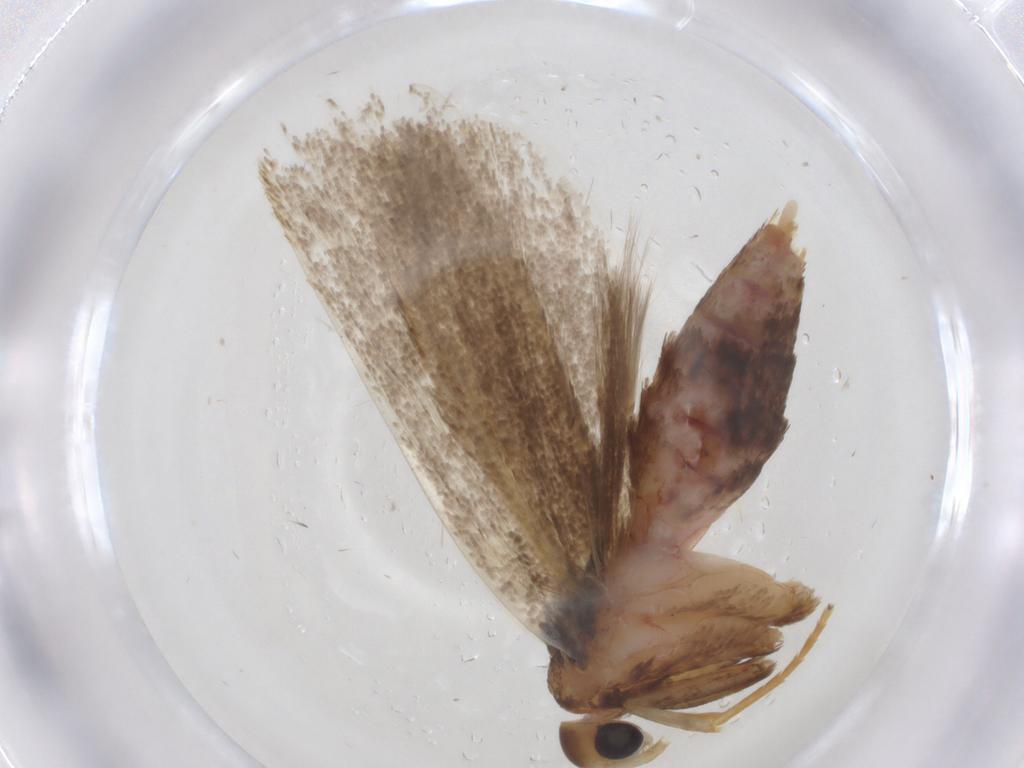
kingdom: Animalia
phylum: Arthropoda
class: Insecta
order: Lepidoptera
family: Lecithoceridae
